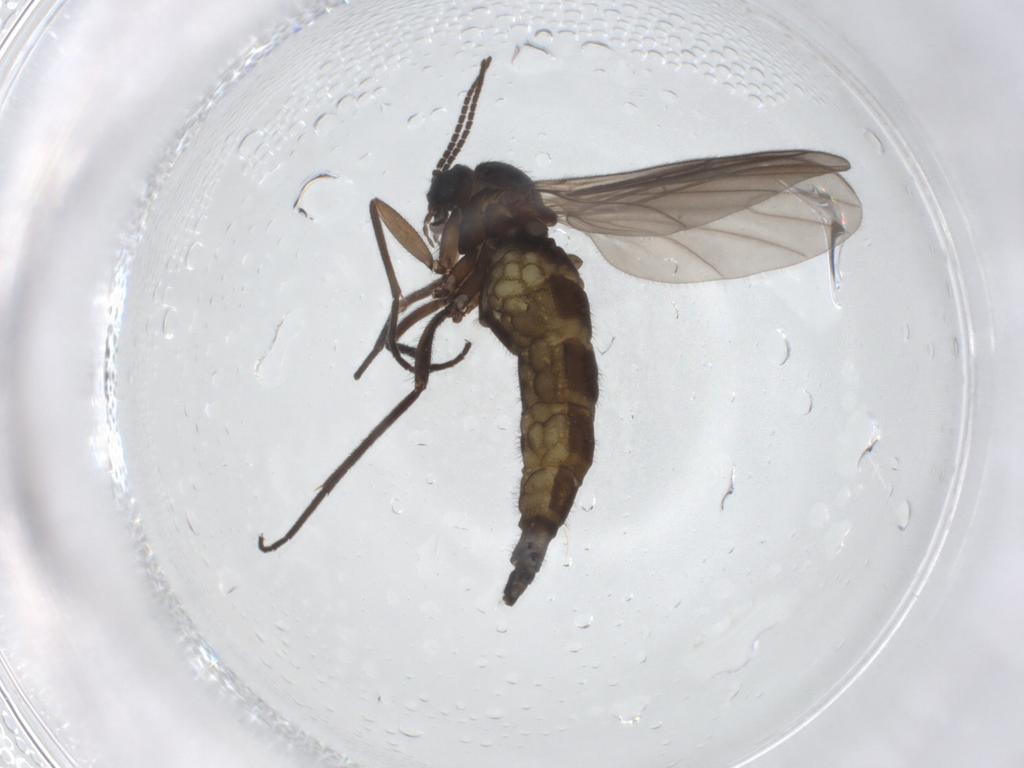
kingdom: Animalia
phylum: Arthropoda
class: Insecta
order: Diptera
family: Sciaridae
